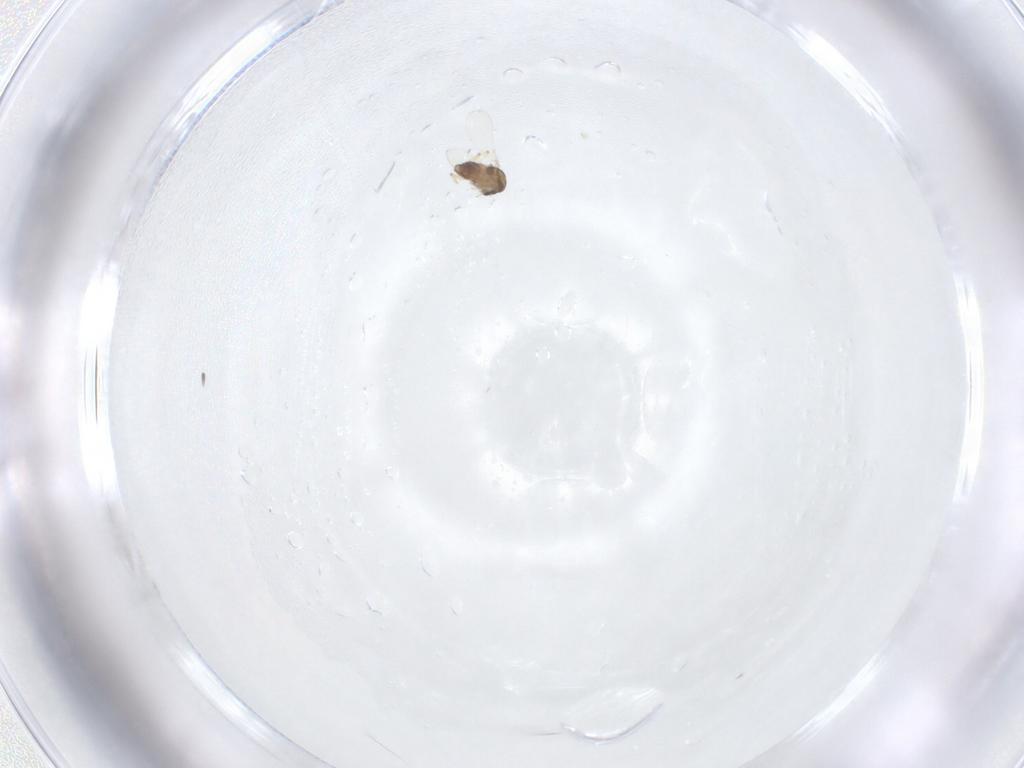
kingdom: Animalia
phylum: Arthropoda
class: Insecta
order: Diptera
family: Chironomidae
